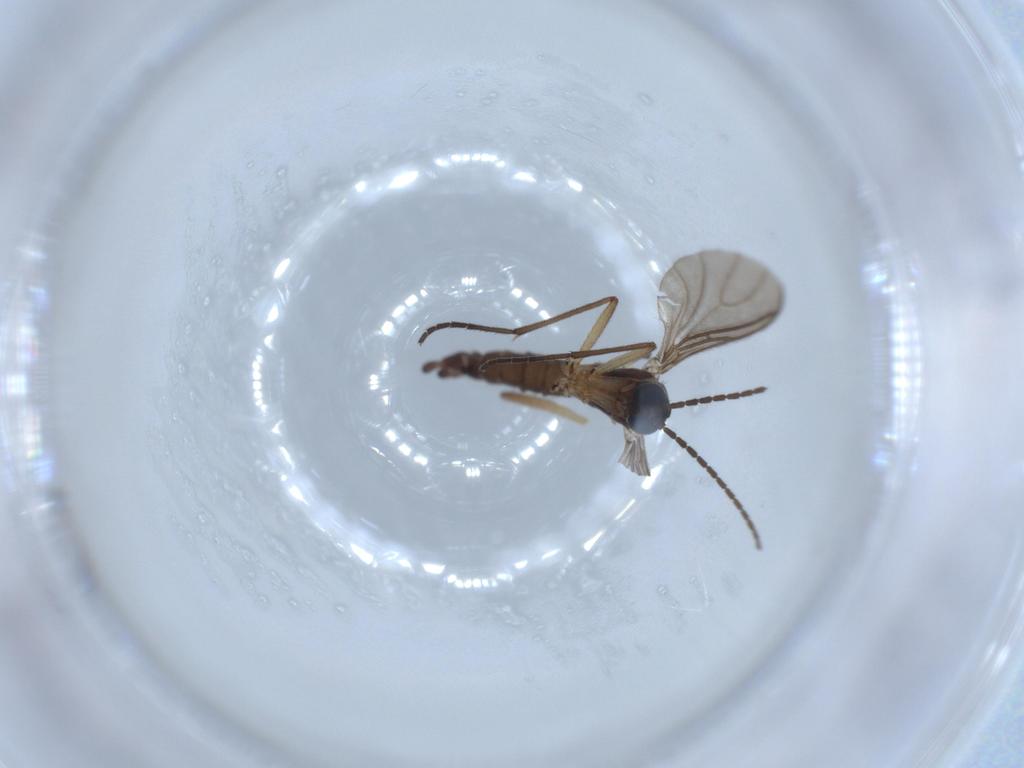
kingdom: Animalia
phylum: Arthropoda
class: Insecta
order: Diptera
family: Sciaridae
